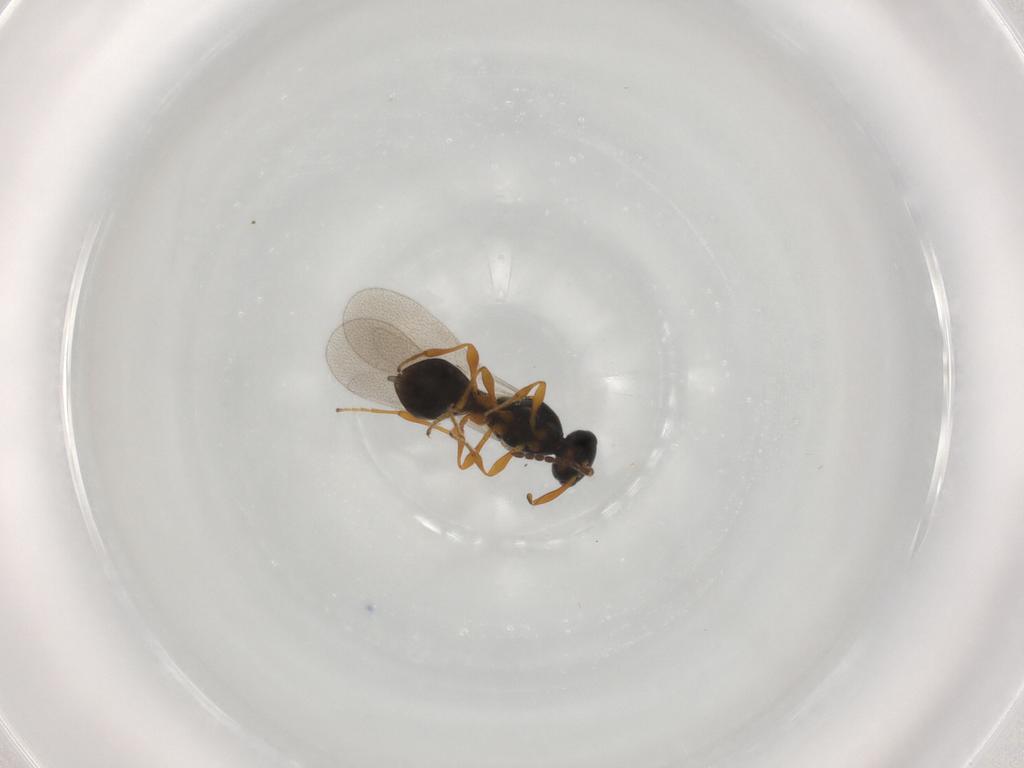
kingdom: Animalia
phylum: Arthropoda
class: Insecta
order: Diptera
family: Mythicomyiidae
